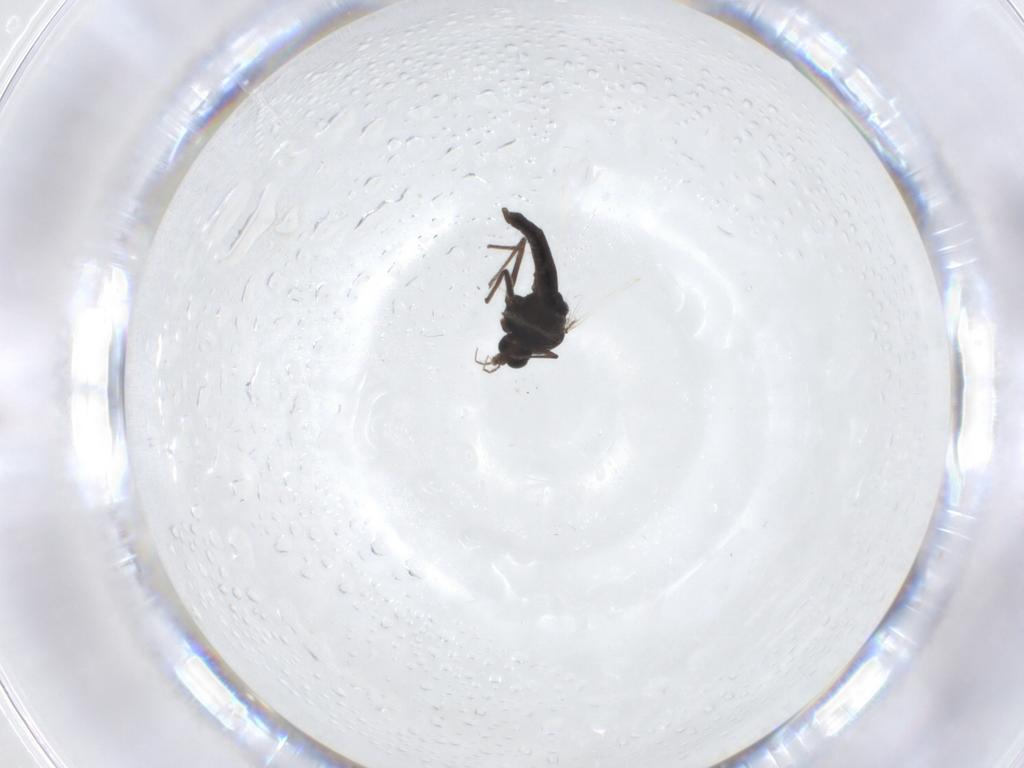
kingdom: Animalia
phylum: Arthropoda
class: Insecta
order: Diptera
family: Chironomidae
